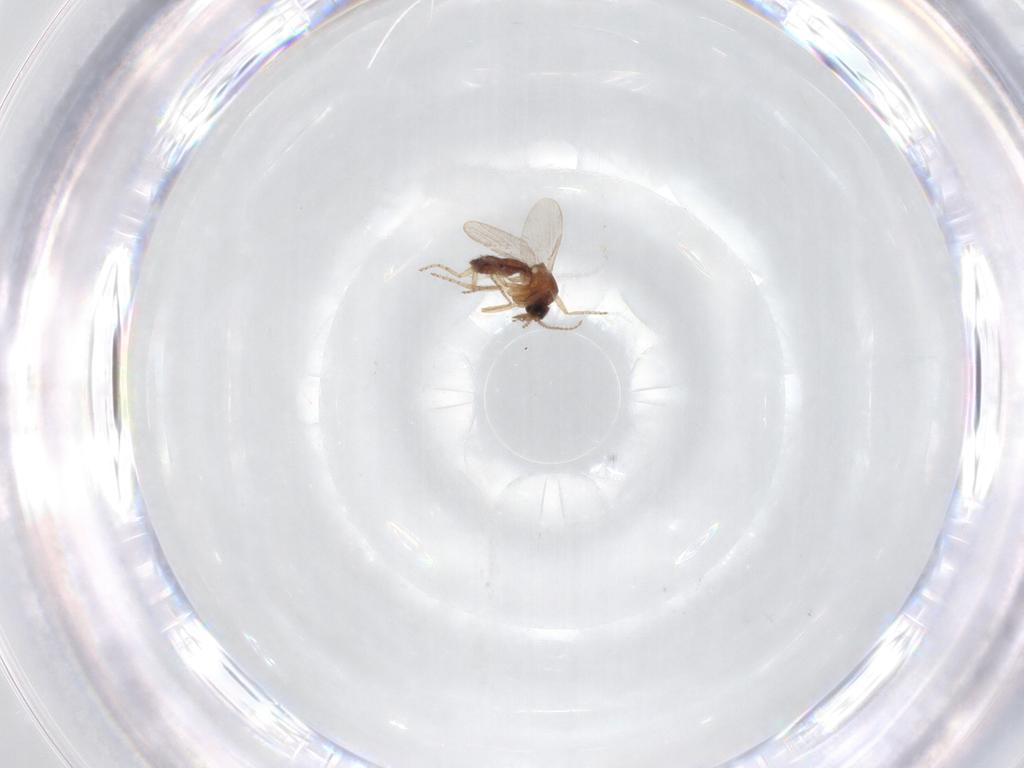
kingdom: Animalia
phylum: Arthropoda
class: Insecta
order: Diptera
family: Ceratopogonidae
